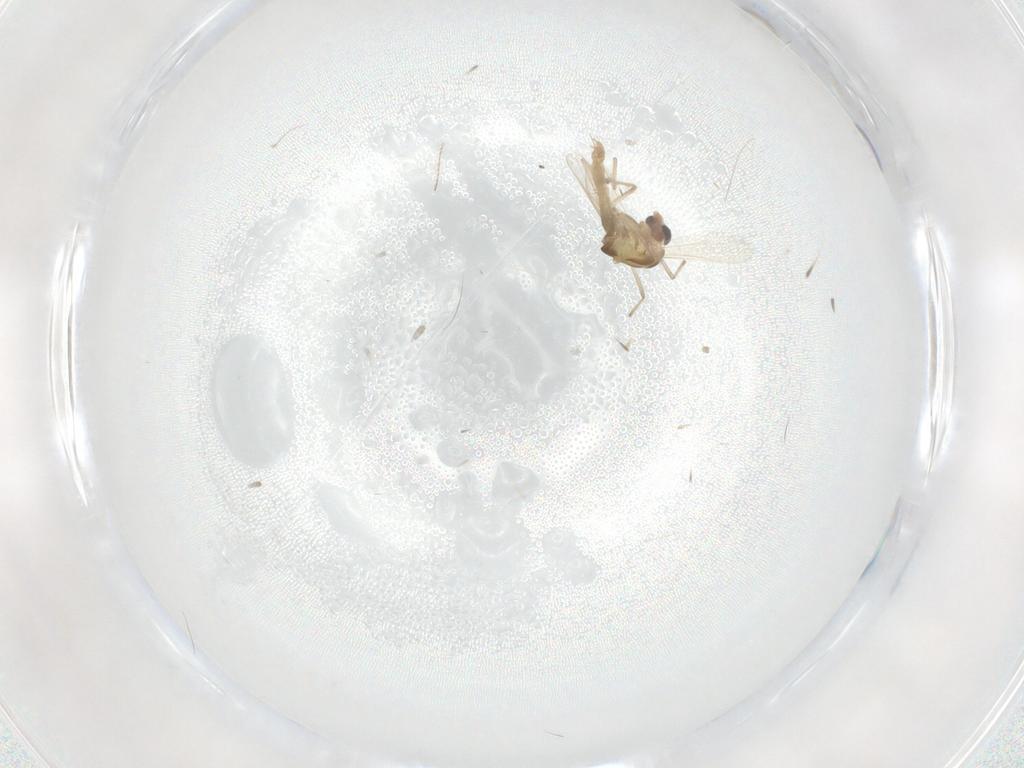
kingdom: Animalia
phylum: Arthropoda
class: Insecta
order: Diptera
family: Chironomidae
